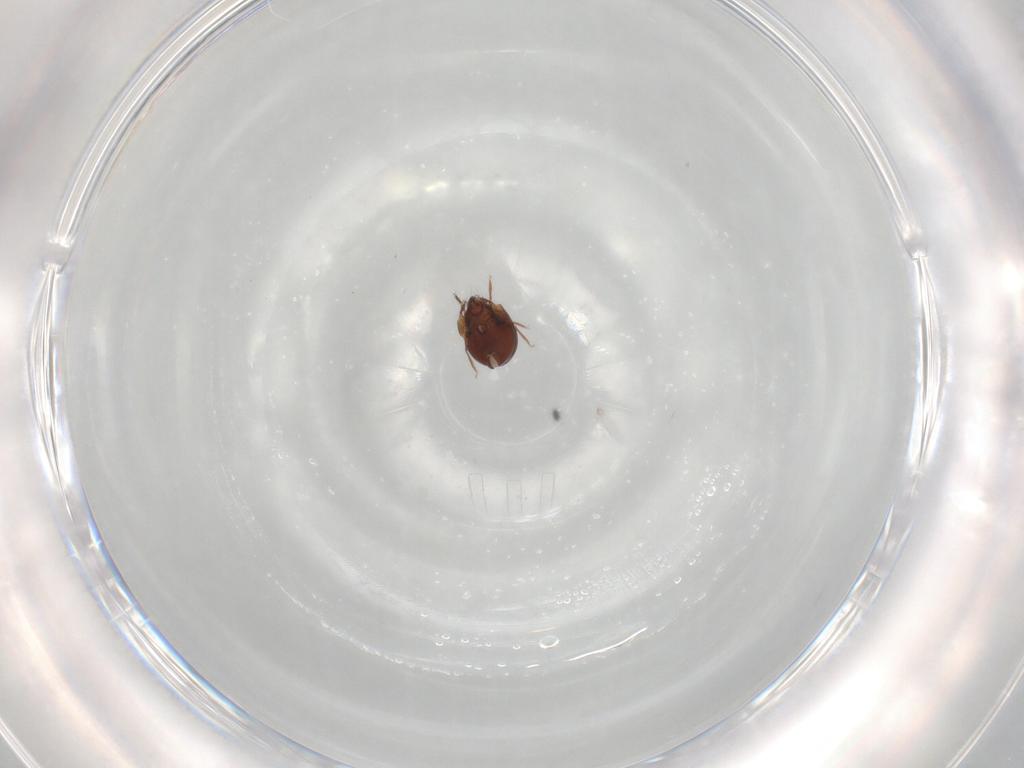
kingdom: Animalia
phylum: Arthropoda
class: Arachnida
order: Sarcoptiformes
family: Humerobatidae
